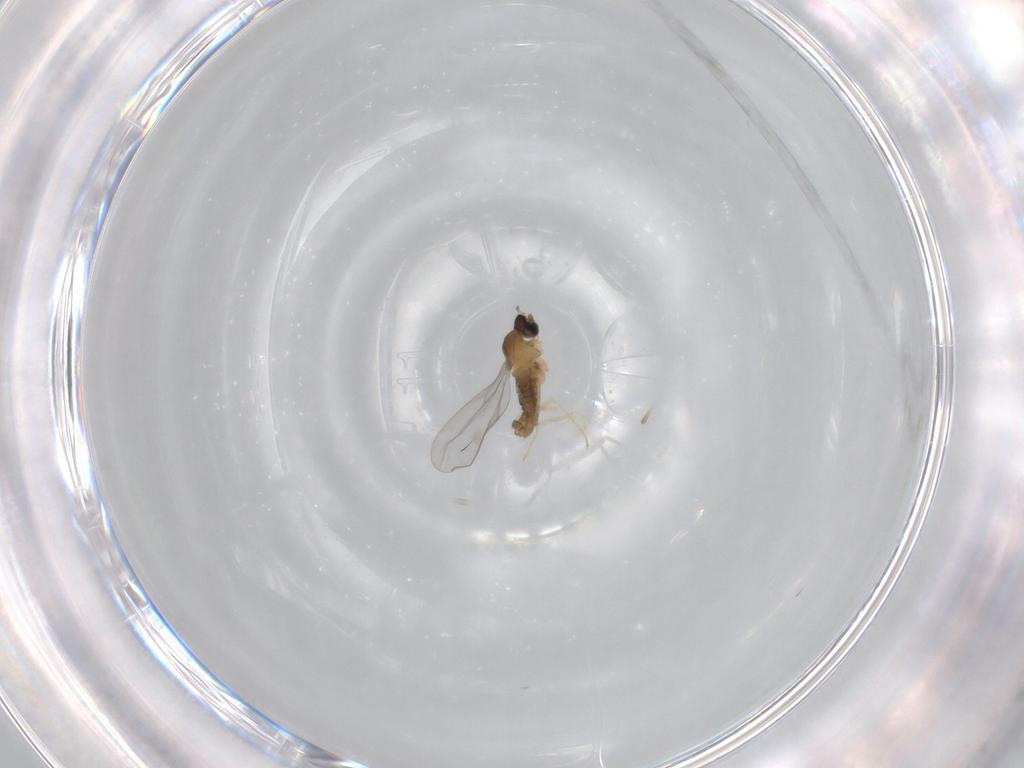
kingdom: Animalia
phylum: Arthropoda
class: Insecta
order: Diptera
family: Cecidomyiidae
